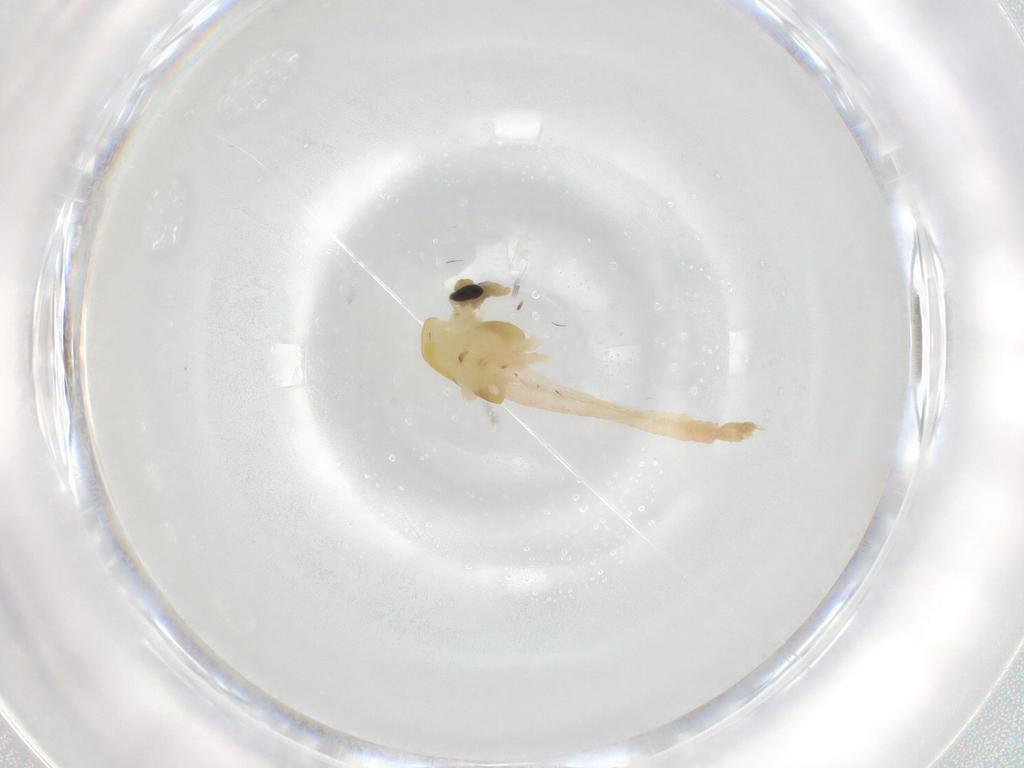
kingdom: Animalia
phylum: Arthropoda
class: Insecta
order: Diptera
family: Chironomidae
